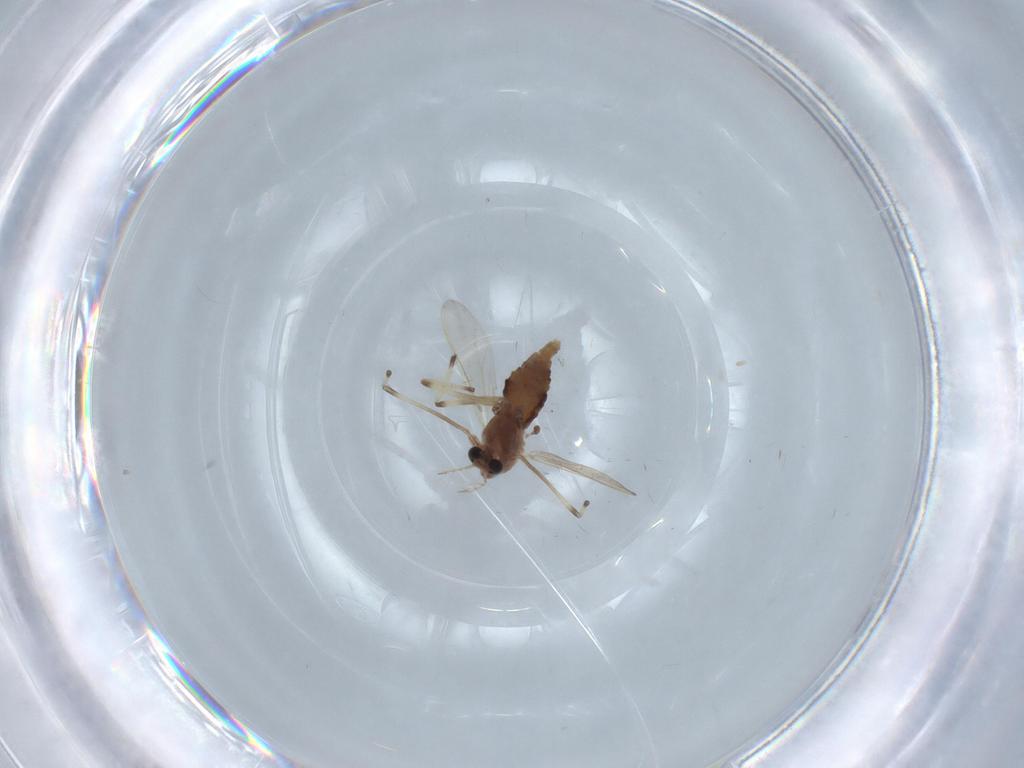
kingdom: Animalia
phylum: Arthropoda
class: Insecta
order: Diptera
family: Chironomidae
